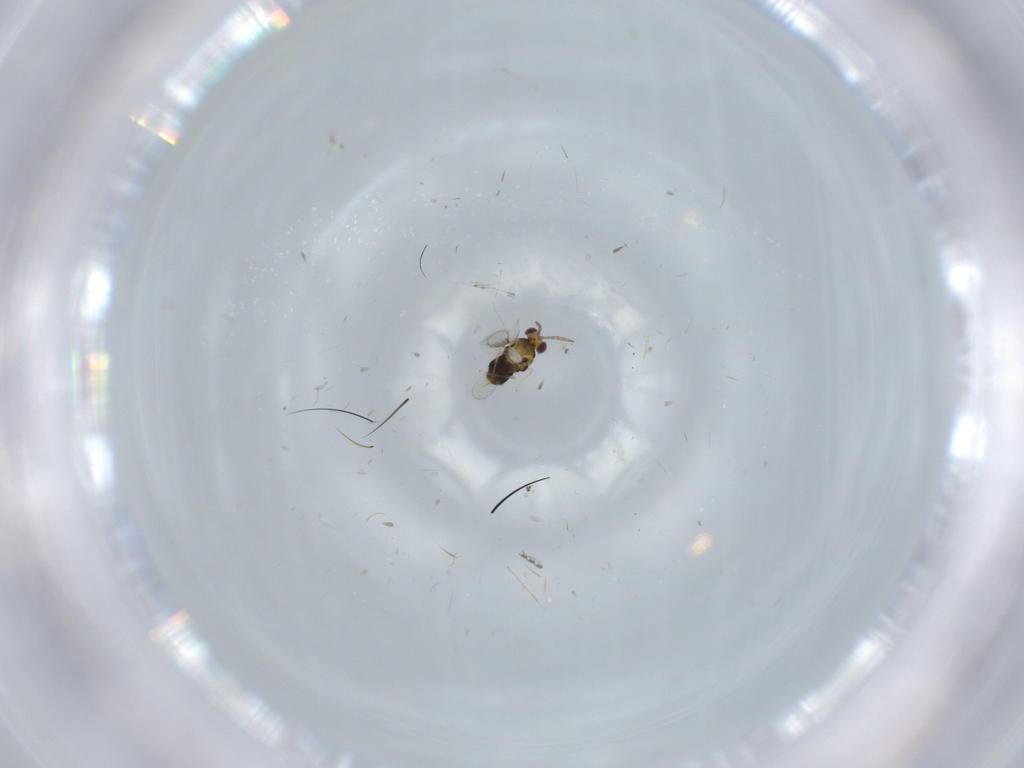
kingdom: Animalia
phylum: Arthropoda
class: Insecta
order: Hymenoptera
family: Aphelinidae
